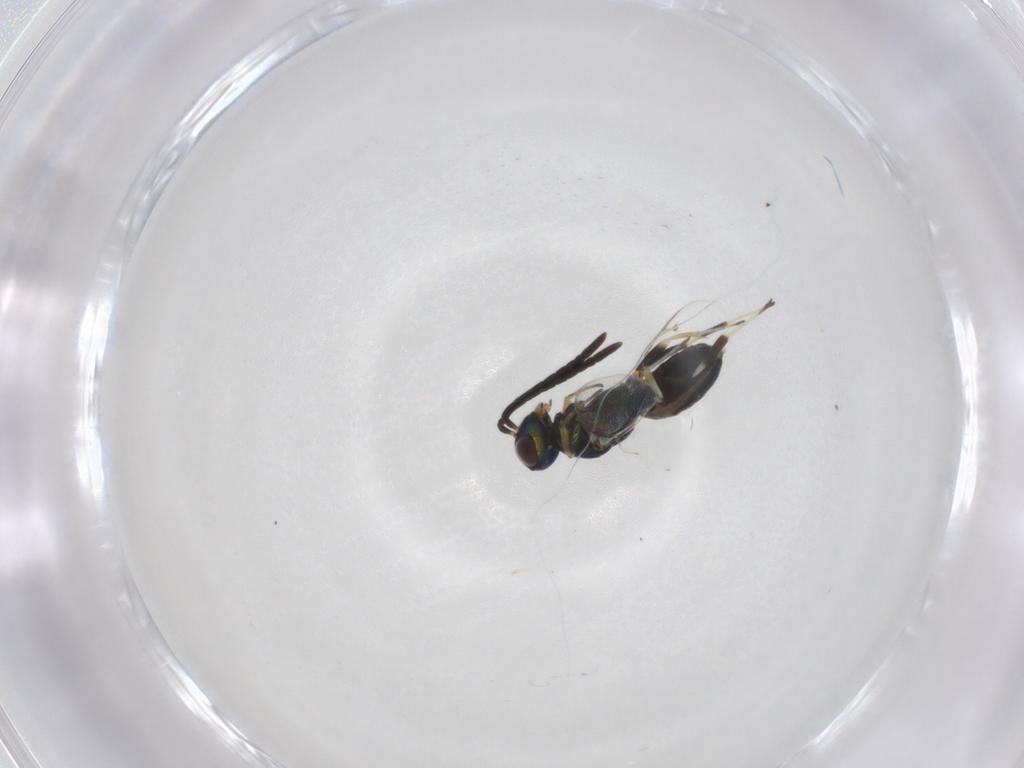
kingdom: Animalia
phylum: Arthropoda
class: Insecta
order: Hymenoptera
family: Eupelmidae
